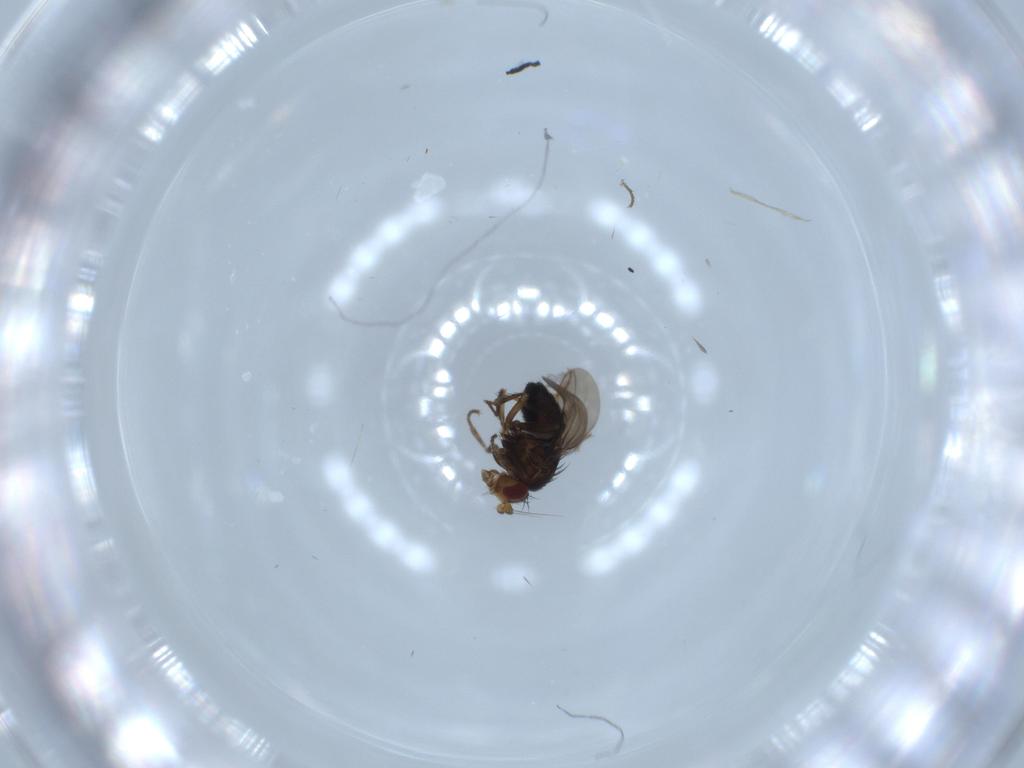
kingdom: Animalia
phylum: Arthropoda
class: Insecta
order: Diptera
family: Sphaeroceridae
